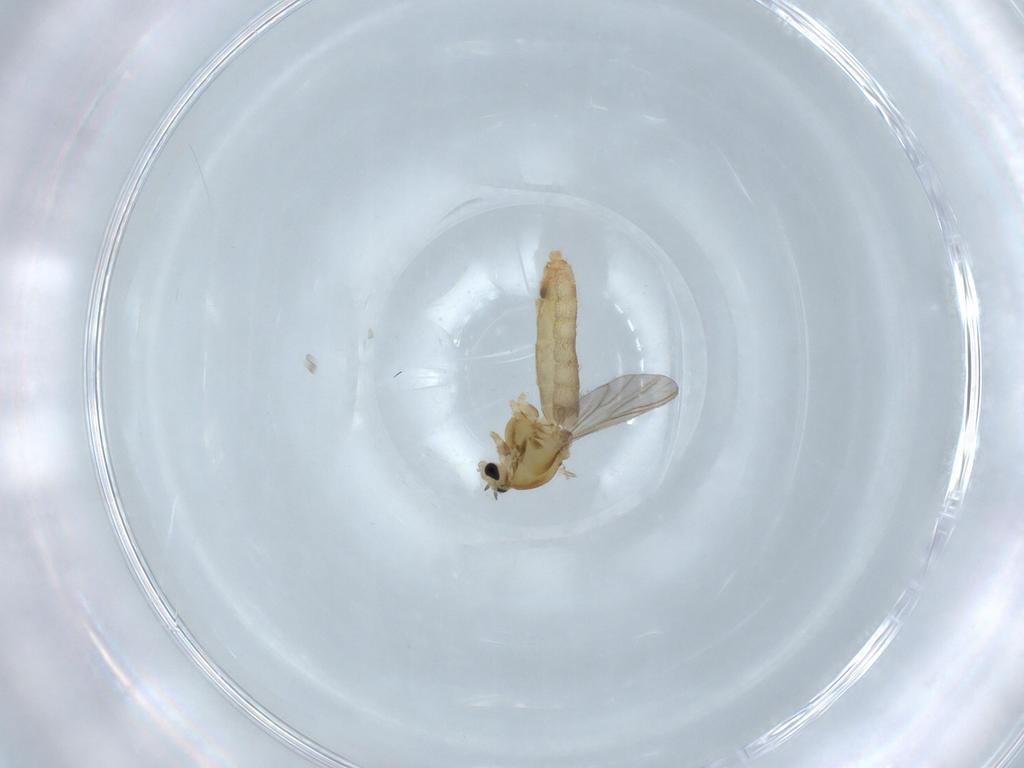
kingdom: Animalia
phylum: Arthropoda
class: Insecta
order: Diptera
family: Chironomidae
